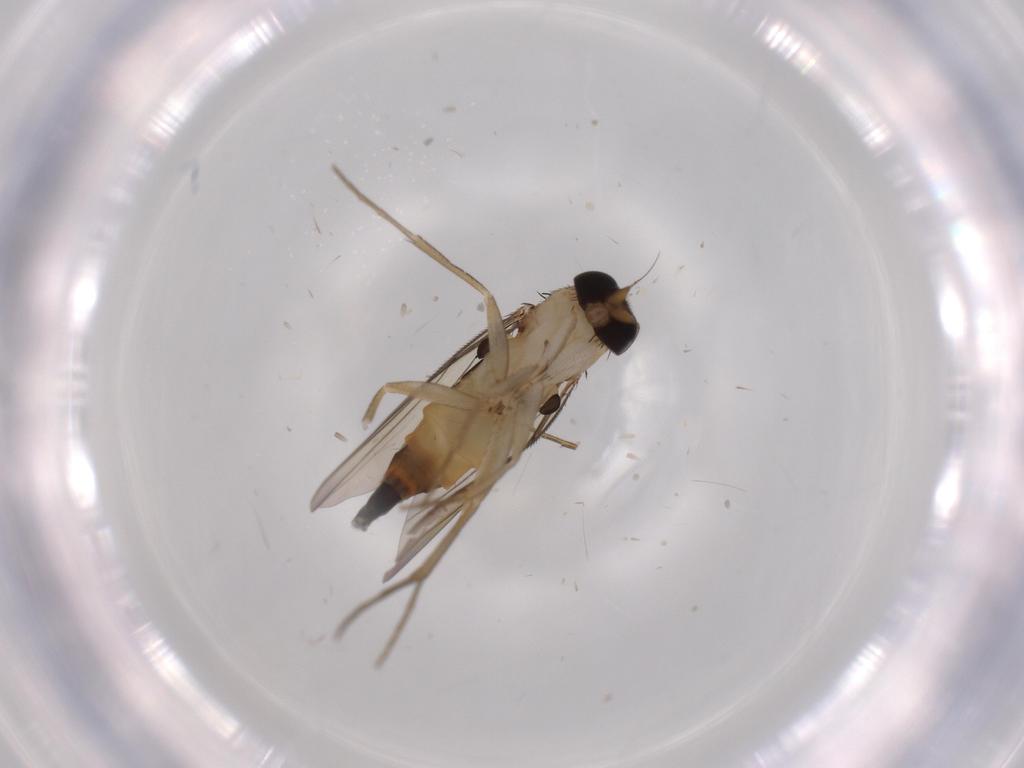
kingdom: Animalia
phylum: Arthropoda
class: Insecta
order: Diptera
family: Phoridae
